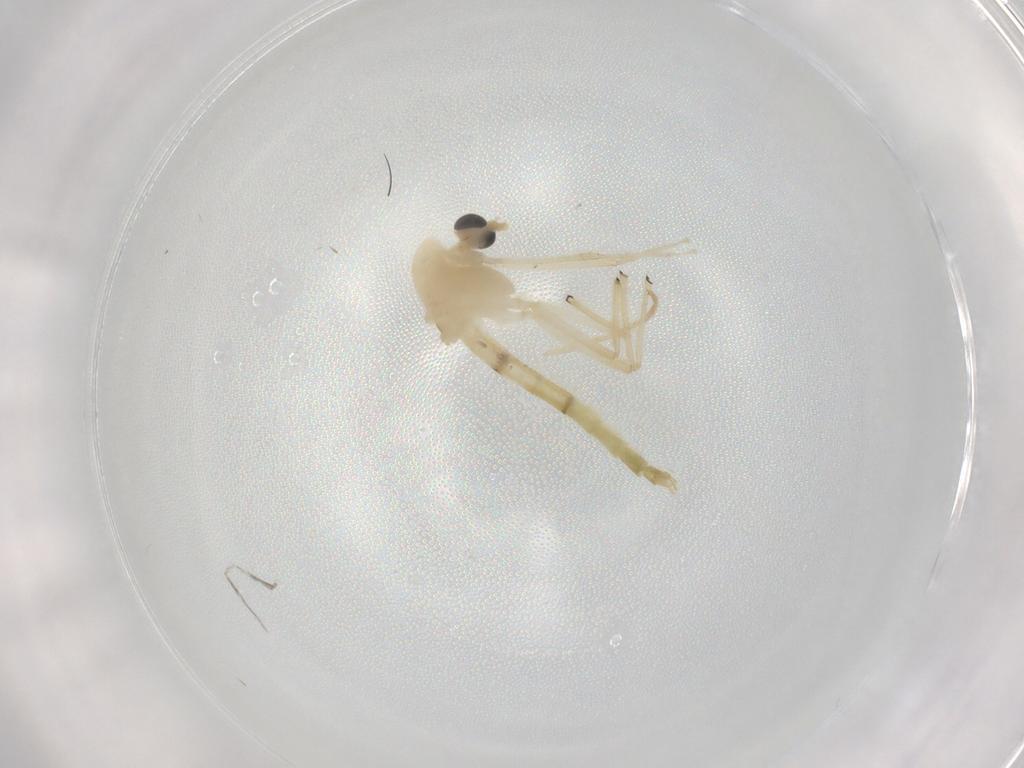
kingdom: Animalia
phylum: Arthropoda
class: Insecta
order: Diptera
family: Chironomidae
